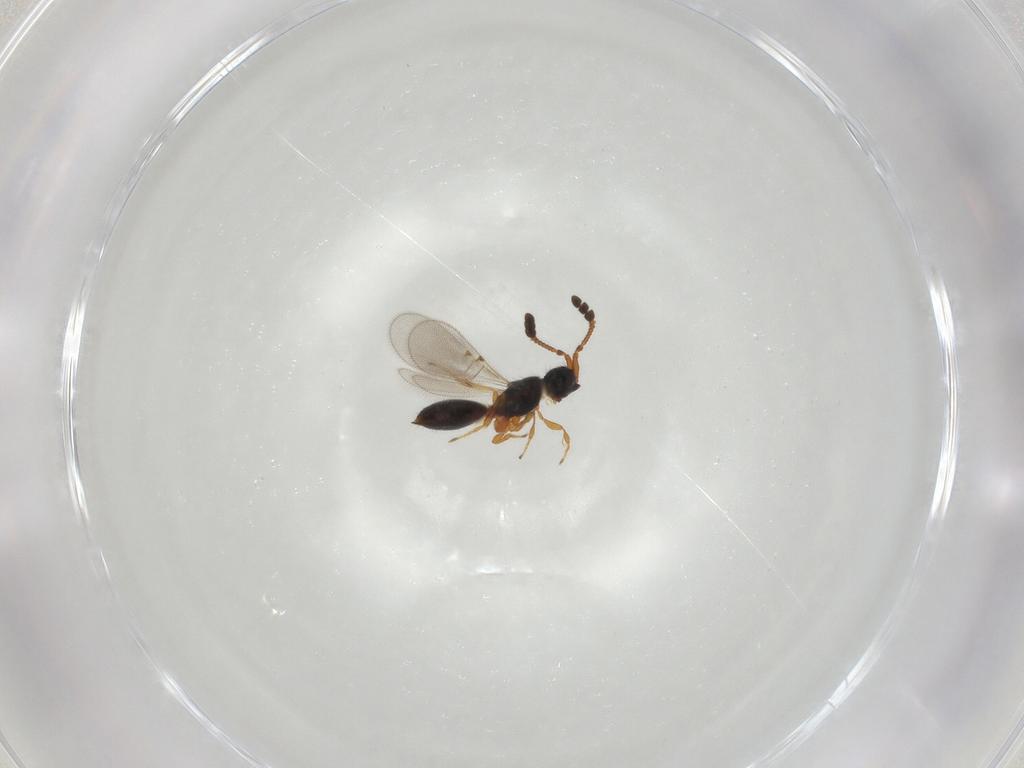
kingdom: Animalia
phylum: Arthropoda
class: Insecta
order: Hymenoptera
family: Diapriidae
